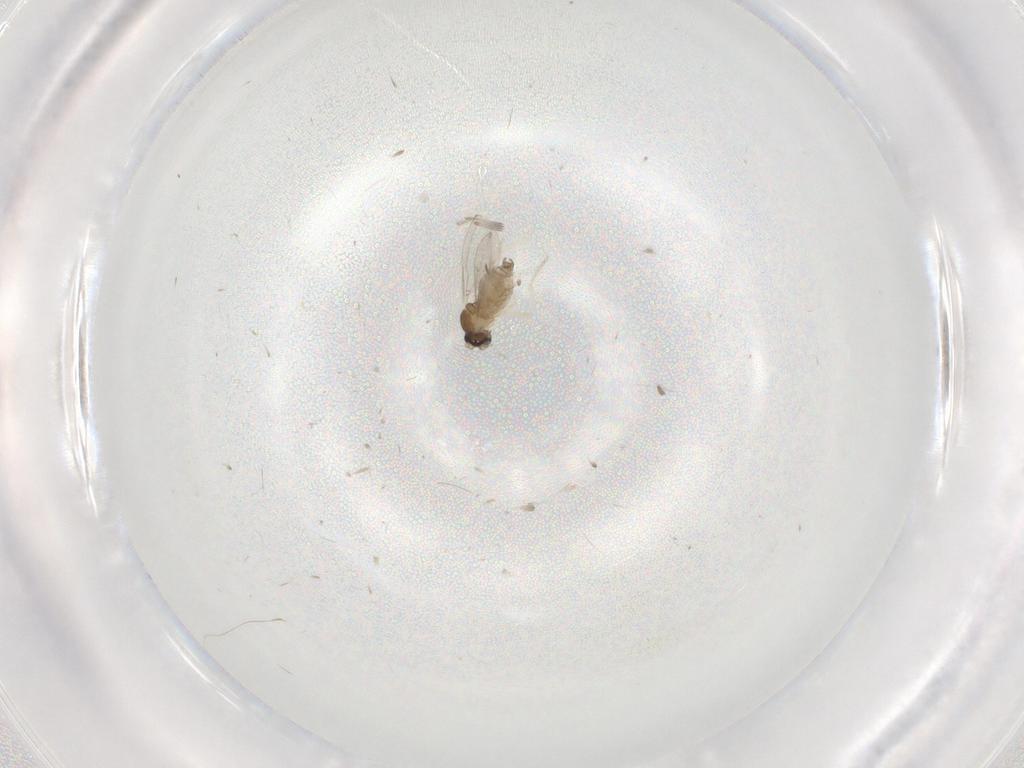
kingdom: Animalia
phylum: Arthropoda
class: Insecta
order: Diptera
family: Cecidomyiidae
